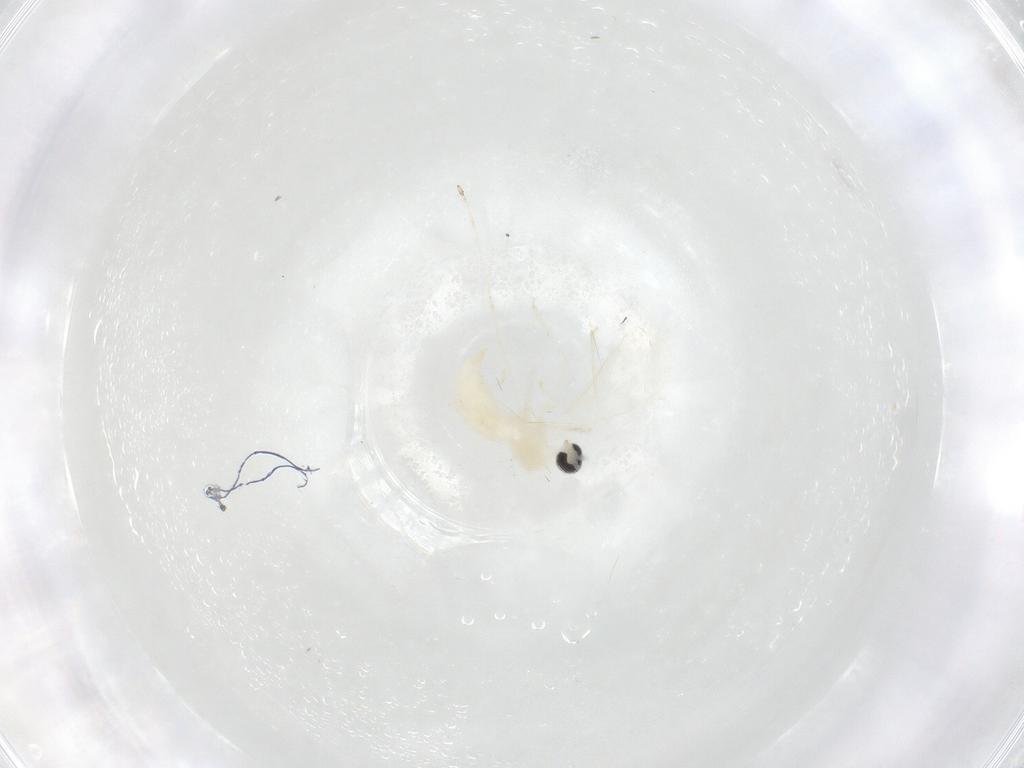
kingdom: Animalia
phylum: Arthropoda
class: Insecta
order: Diptera
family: Cecidomyiidae
